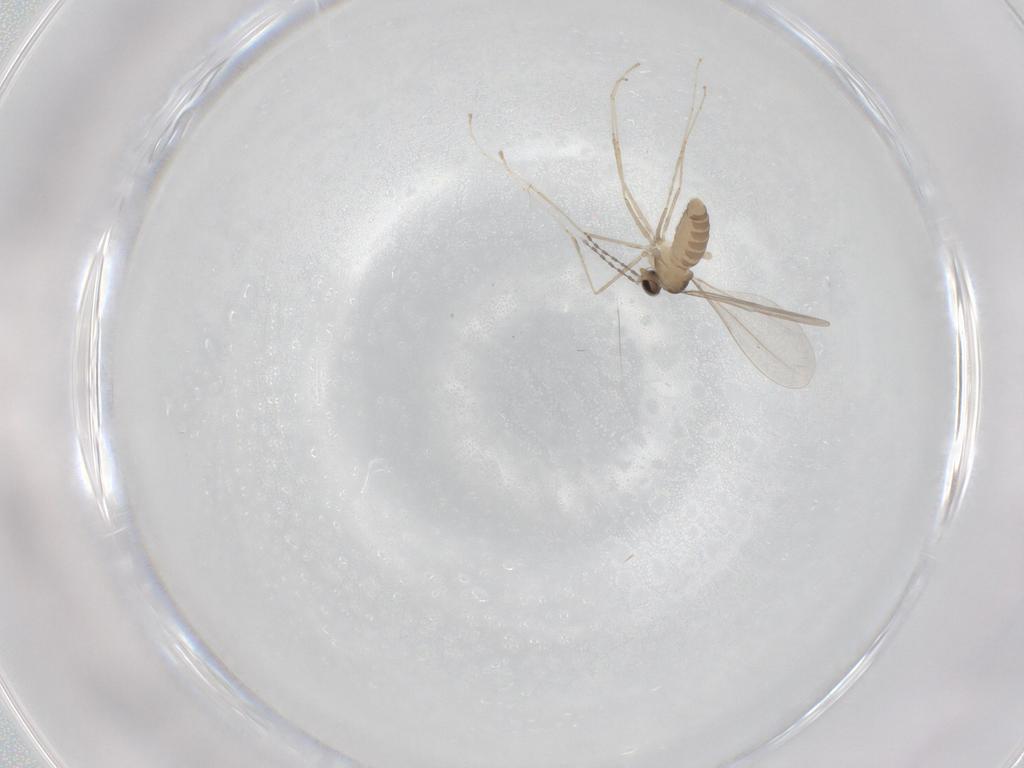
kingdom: Animalia
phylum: Arthropoda
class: Insecta
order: Diptera
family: Cecidomyiidae
